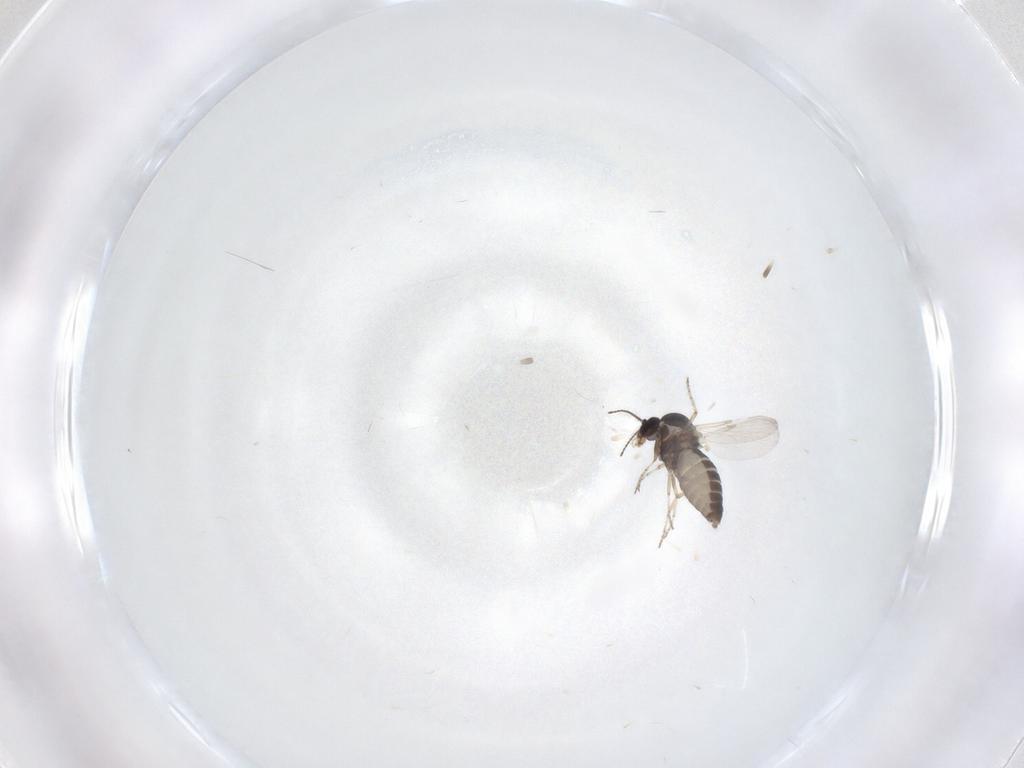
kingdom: Animalia
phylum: Arthropoda
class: Insecta
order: Diptera
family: Ceratopogonidae
